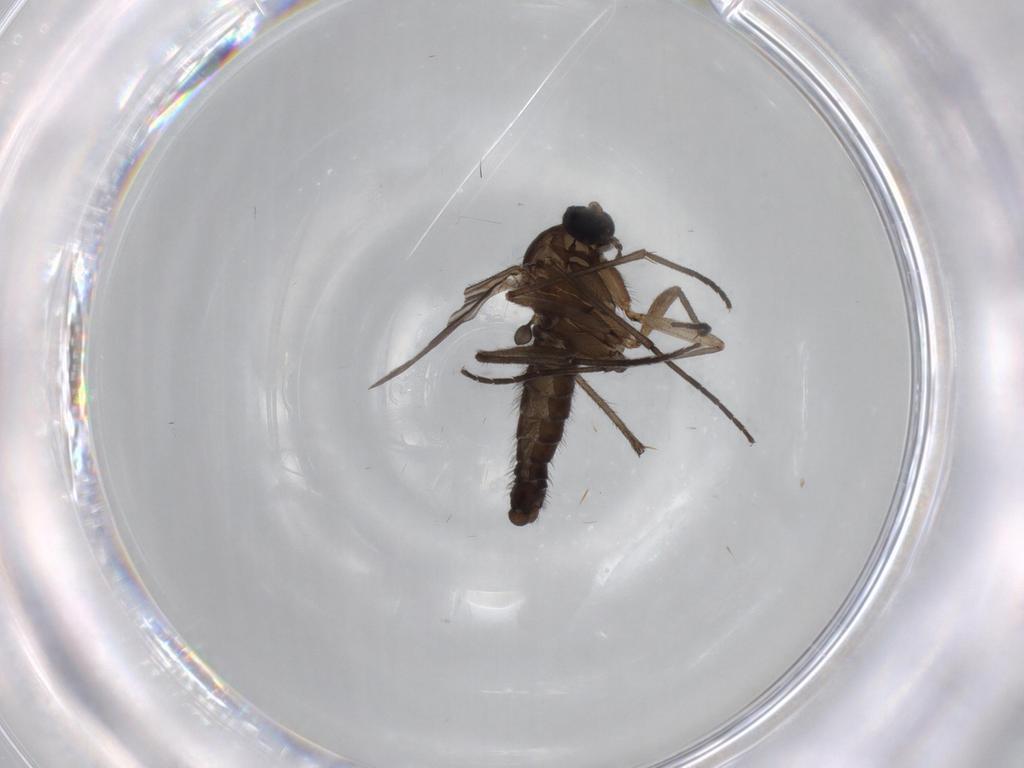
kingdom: Animalia
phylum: Arthropoda
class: Insecta
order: Diptera
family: Sciaridae
